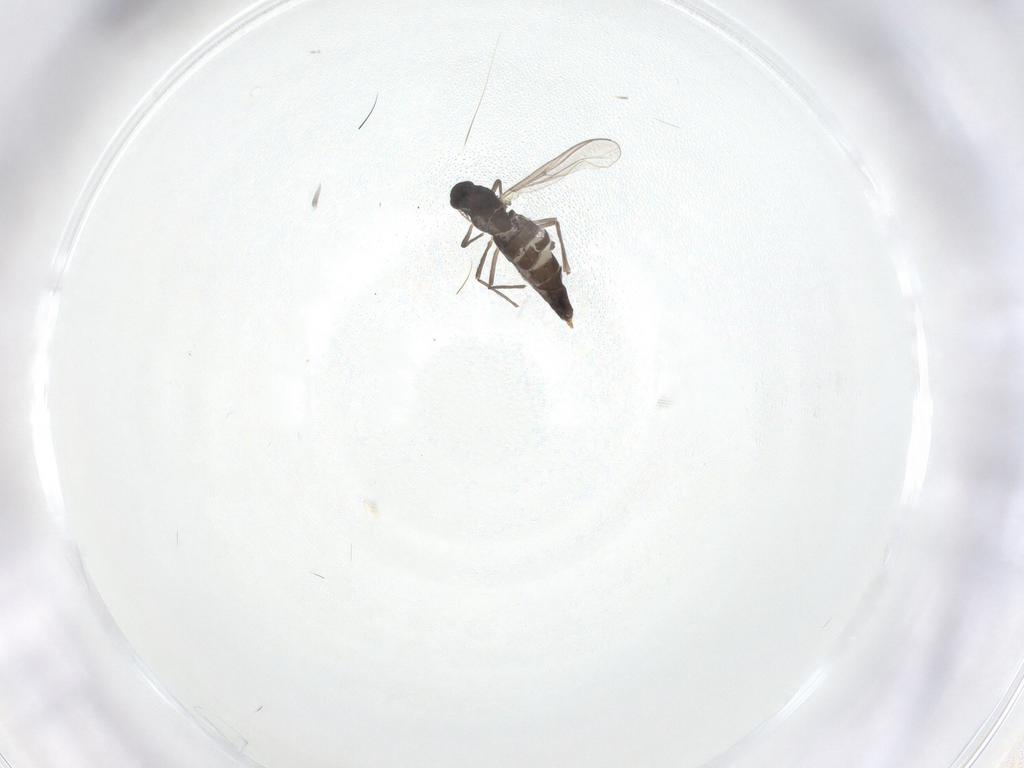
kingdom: Animalia
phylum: Arthropoda
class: Insecta
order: Diptera
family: Chironomidae
